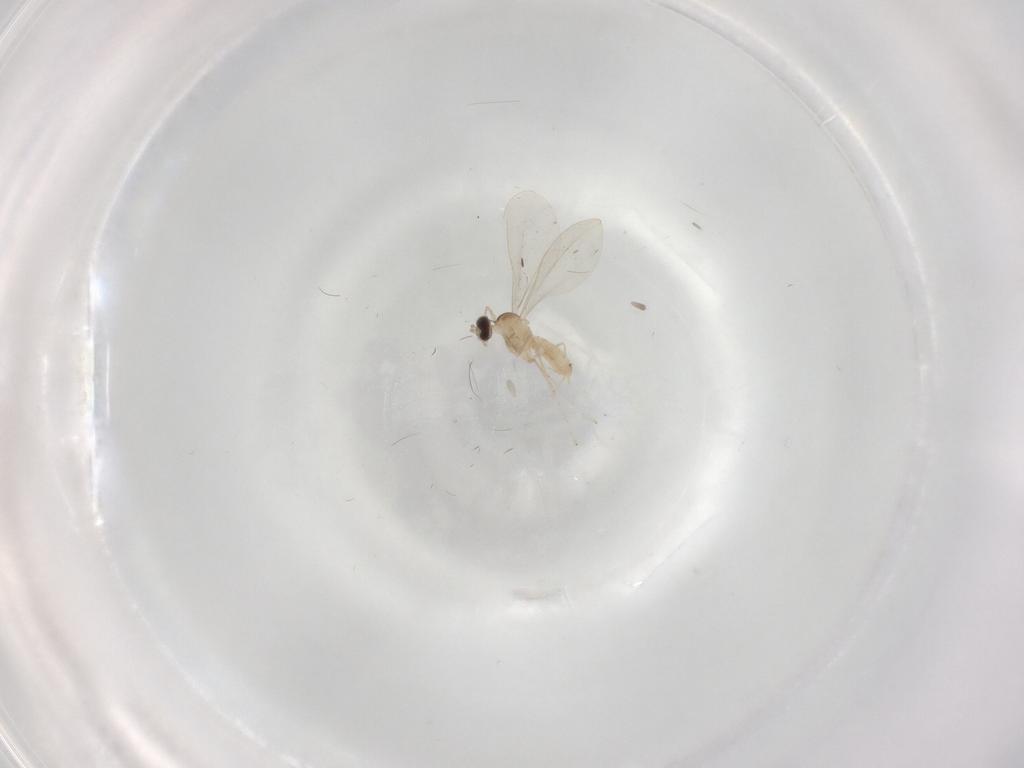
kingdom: Animalia
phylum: Arthropoda
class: Insecta
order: Diptera
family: Cecidomyiidae
